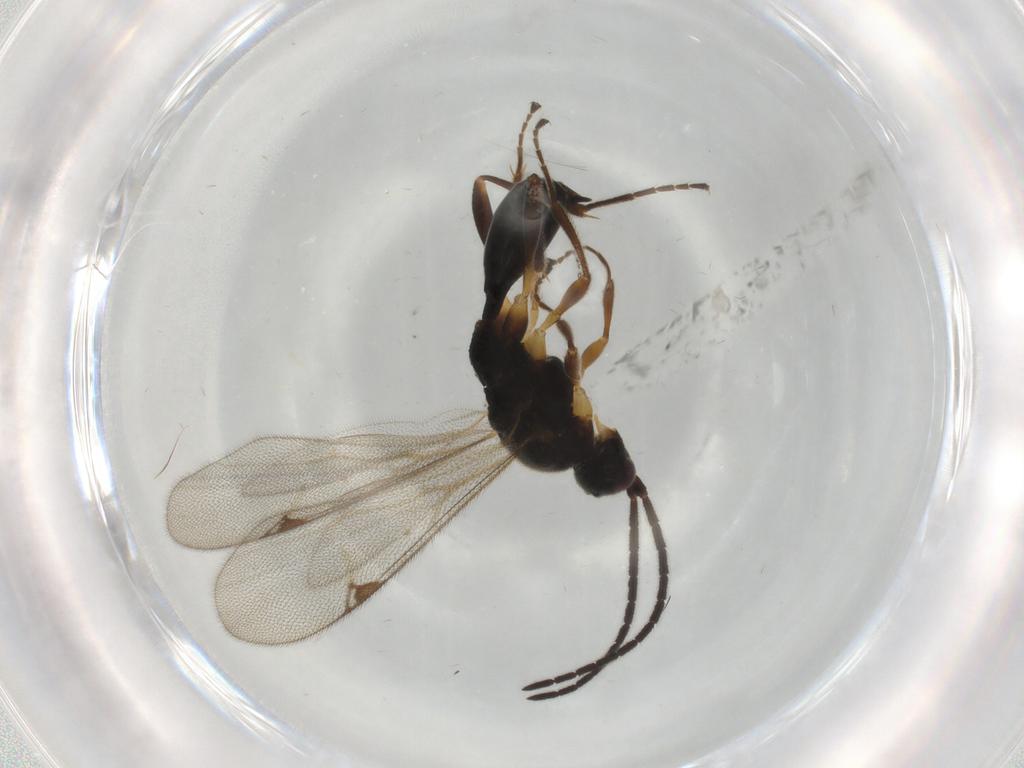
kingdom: Animalia
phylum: Arthropoda
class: Insecta
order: Hymenoptera
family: Proctotrupidae
